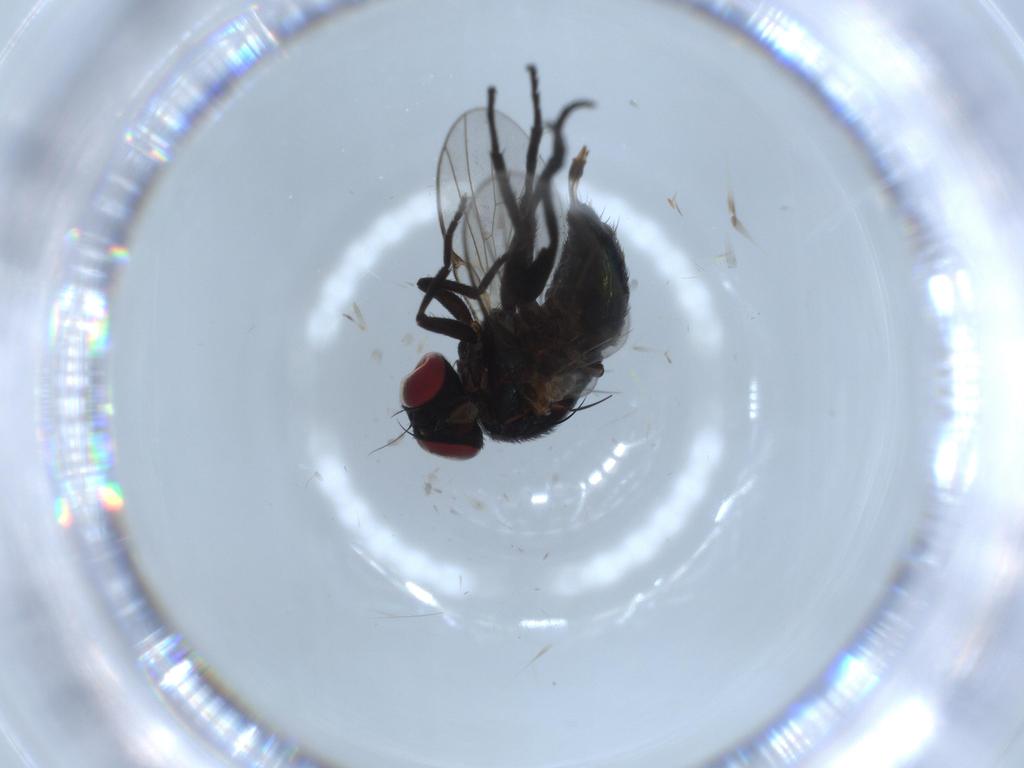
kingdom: Animalia
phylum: Arthropoda
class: Insecta
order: Diptera
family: Agromyzidae
